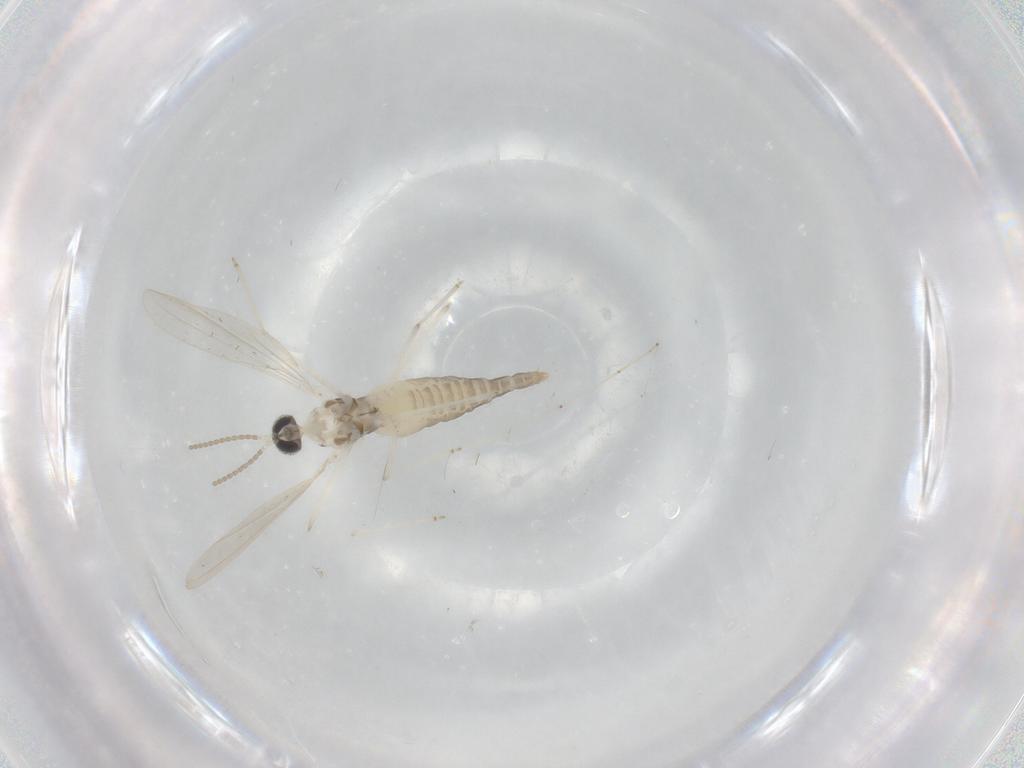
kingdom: Animalia
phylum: Arthropoda
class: Insecta
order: Diptera
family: Cecidomyiidae
